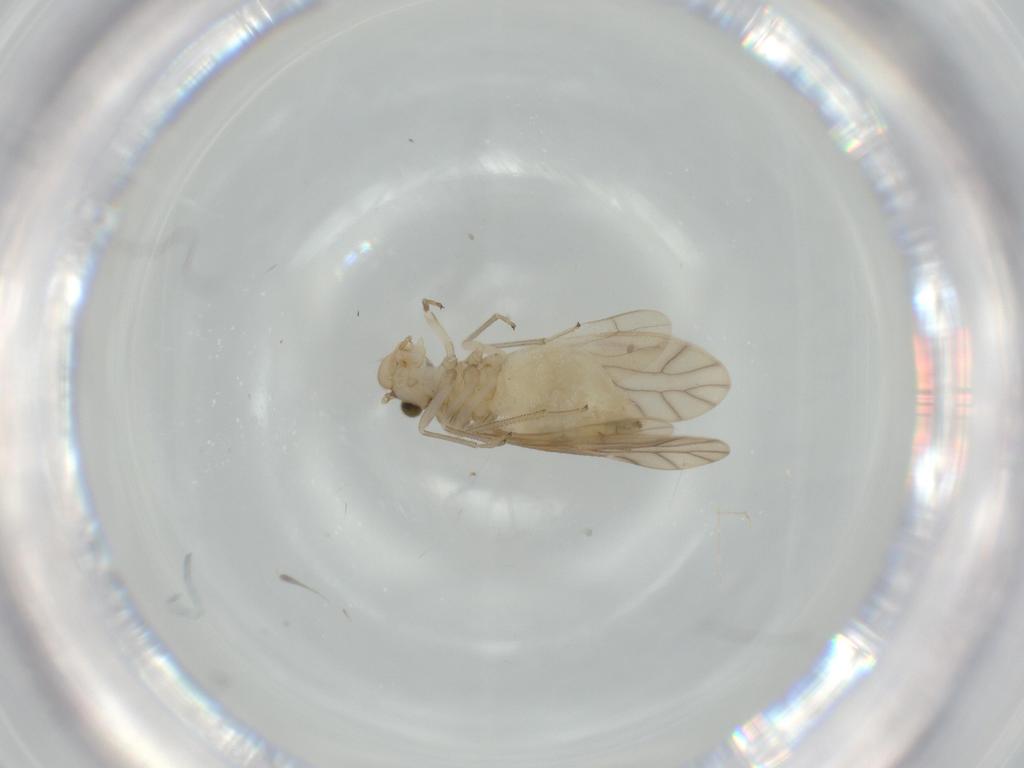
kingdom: Animalia
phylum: Arthropoda
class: Insecta
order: Psocodea
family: Caeciliusidae
